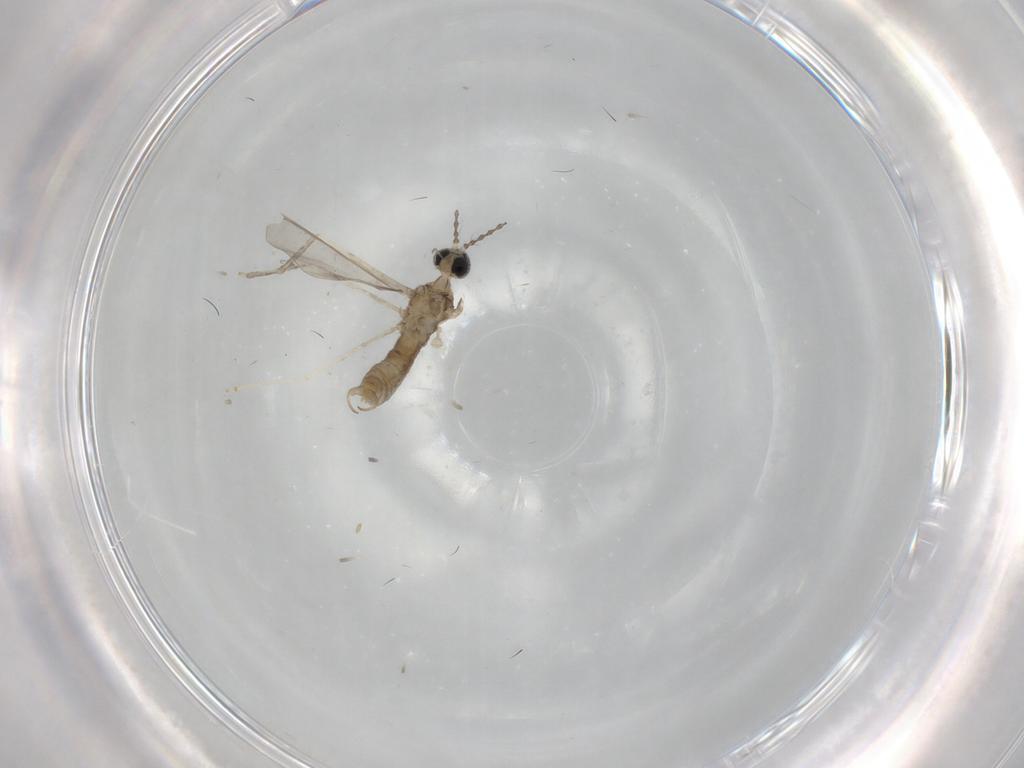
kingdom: Animalia
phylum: Arthropoda
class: Insecta
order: Diptera
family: Cecidomyiidae
